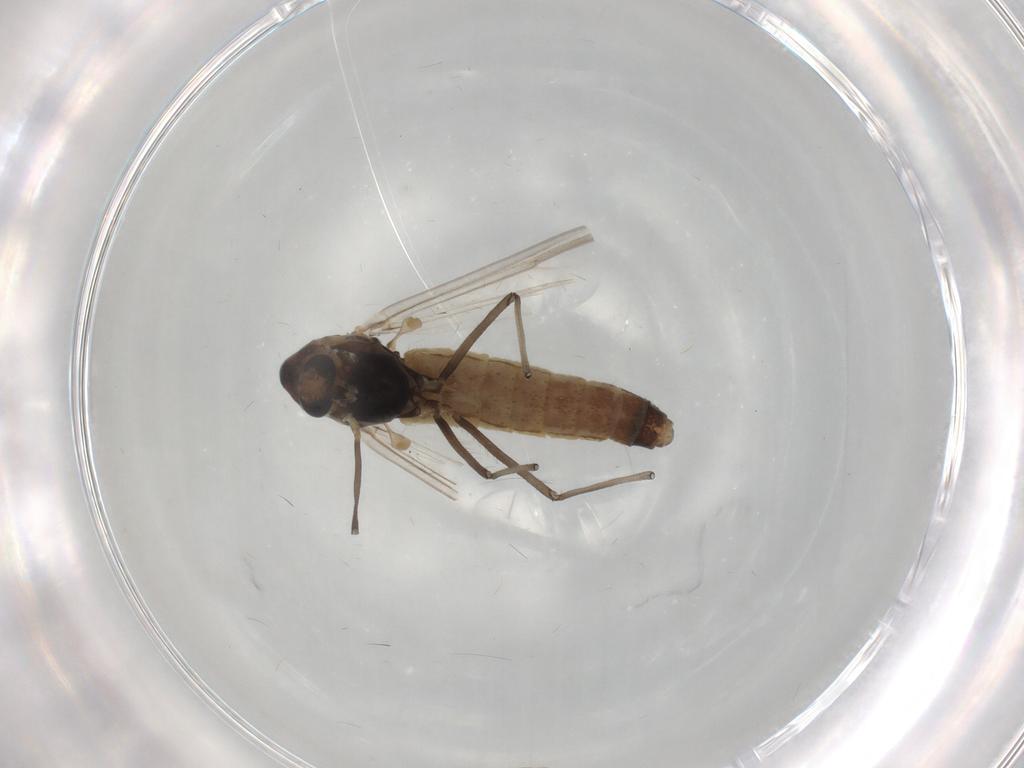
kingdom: Animalia
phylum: Arthropoda
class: Insecta
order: Diptera
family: Chironomidae
